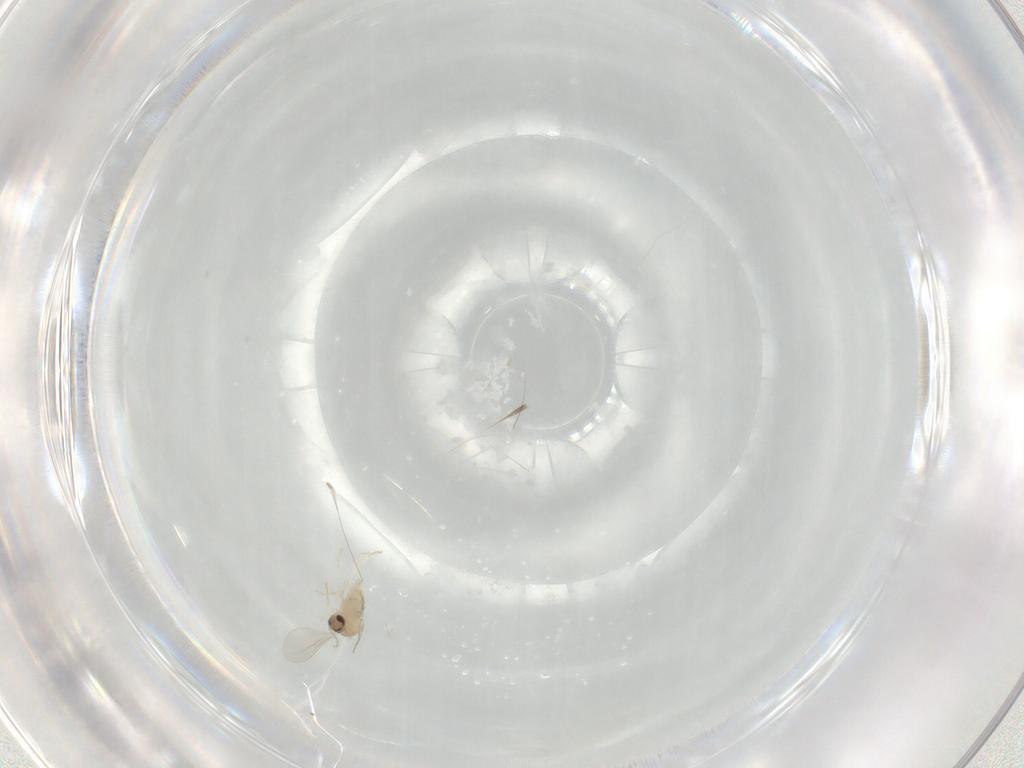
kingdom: Animalia
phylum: Arthropoda
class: Insecta
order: Diptera
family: Cecidomyiidae
